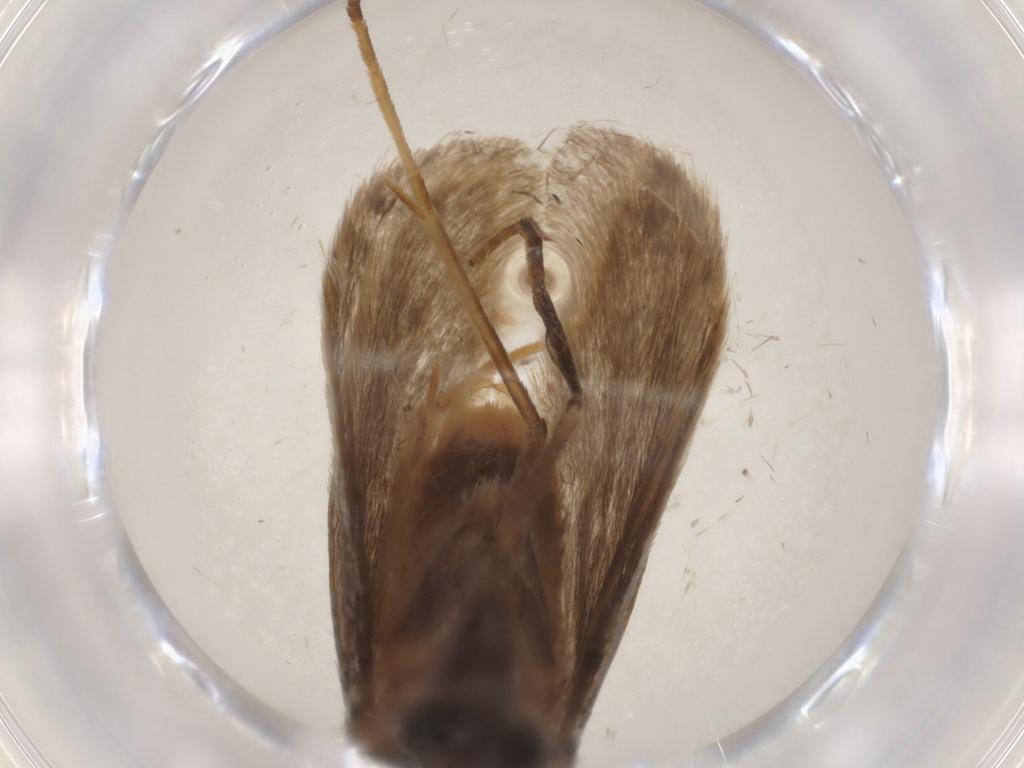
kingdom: Animalia
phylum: Arthropoda
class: Insecta
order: Lepidoptera
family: Adelidae
